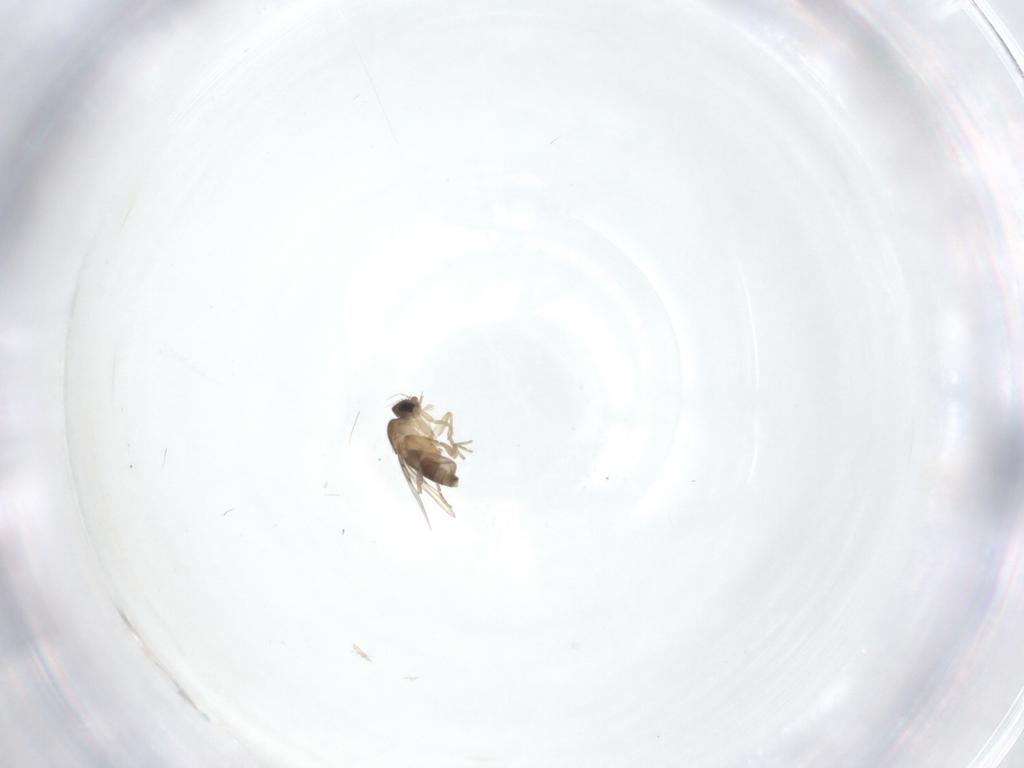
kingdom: Animalia
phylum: Arthropoda
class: Insecta
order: Diptera
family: Phoridae
